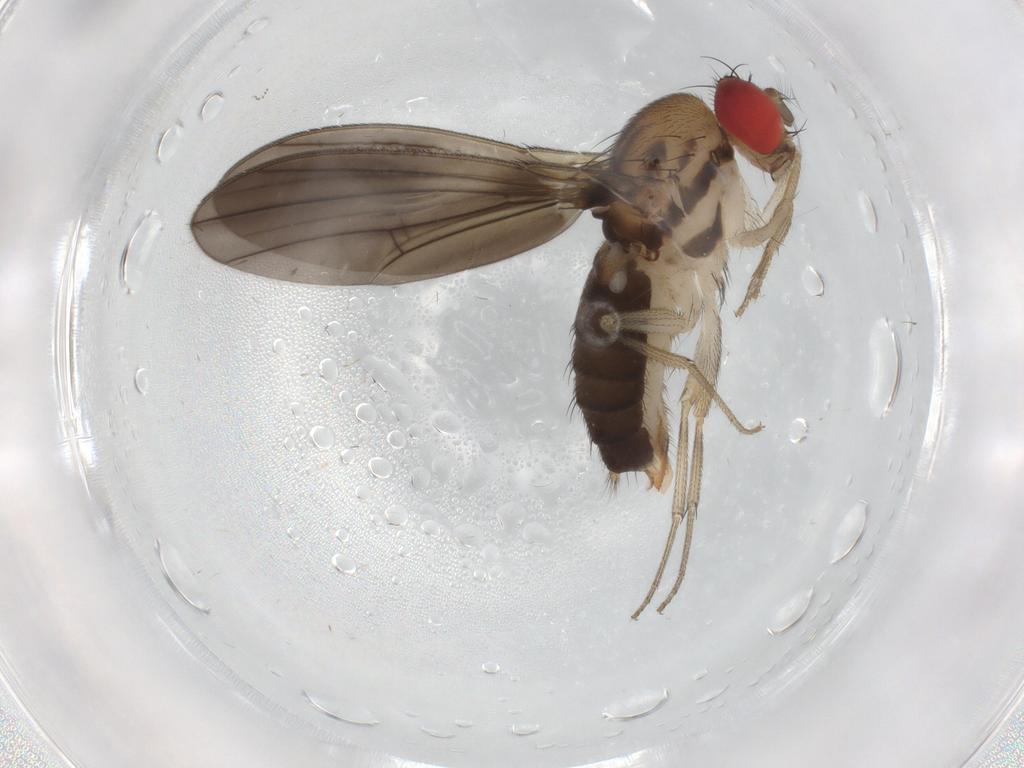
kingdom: Animalia
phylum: Arthropoda
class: Insecta
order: Diptera
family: Drosophilidae
